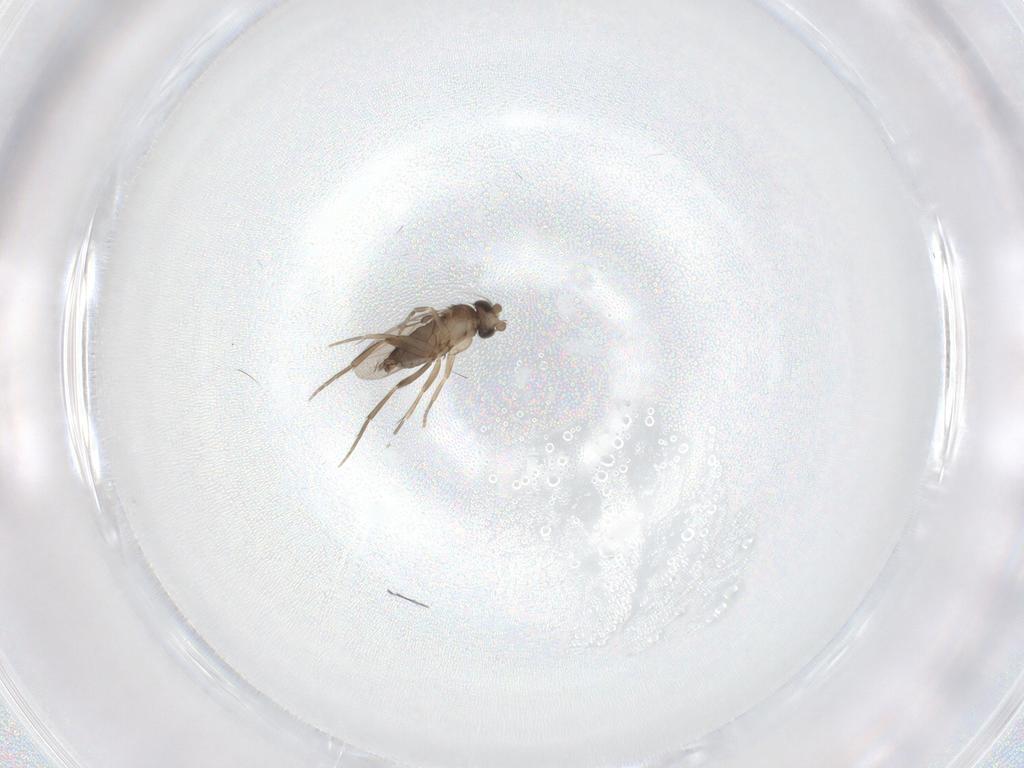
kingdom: Animalia
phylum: Arthropoda
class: Insecta
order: Diptera
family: Phoridae
